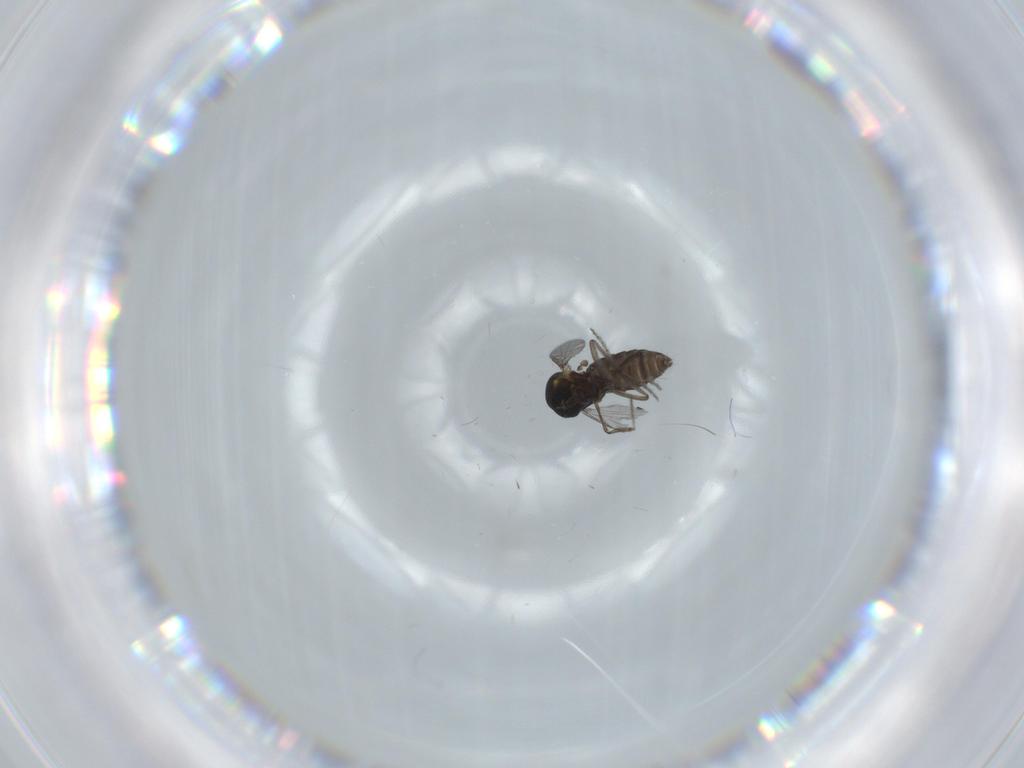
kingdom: Animalia
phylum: Arthropoda
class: Insecta
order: Diptera
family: Ceratopogonidae
